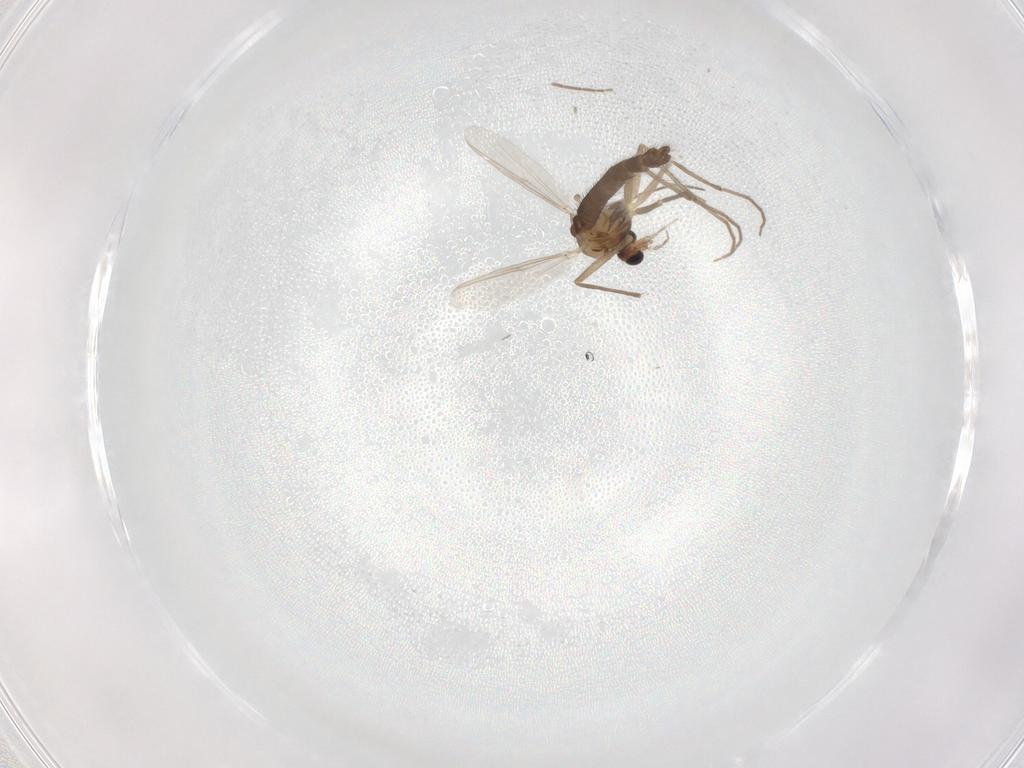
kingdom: Animalia
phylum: Arthropoda
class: Insecta
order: Diptera
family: Chironomidae
